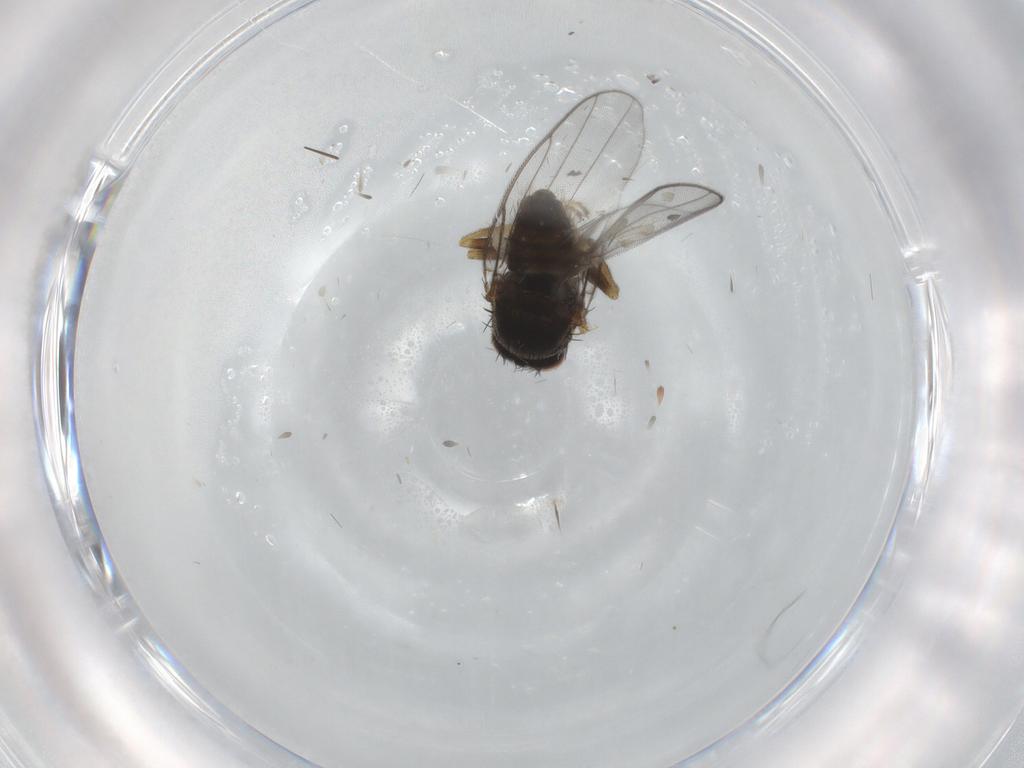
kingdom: Animalia
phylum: Arthropoda
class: Insecta
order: Diptera
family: Chloropidae
